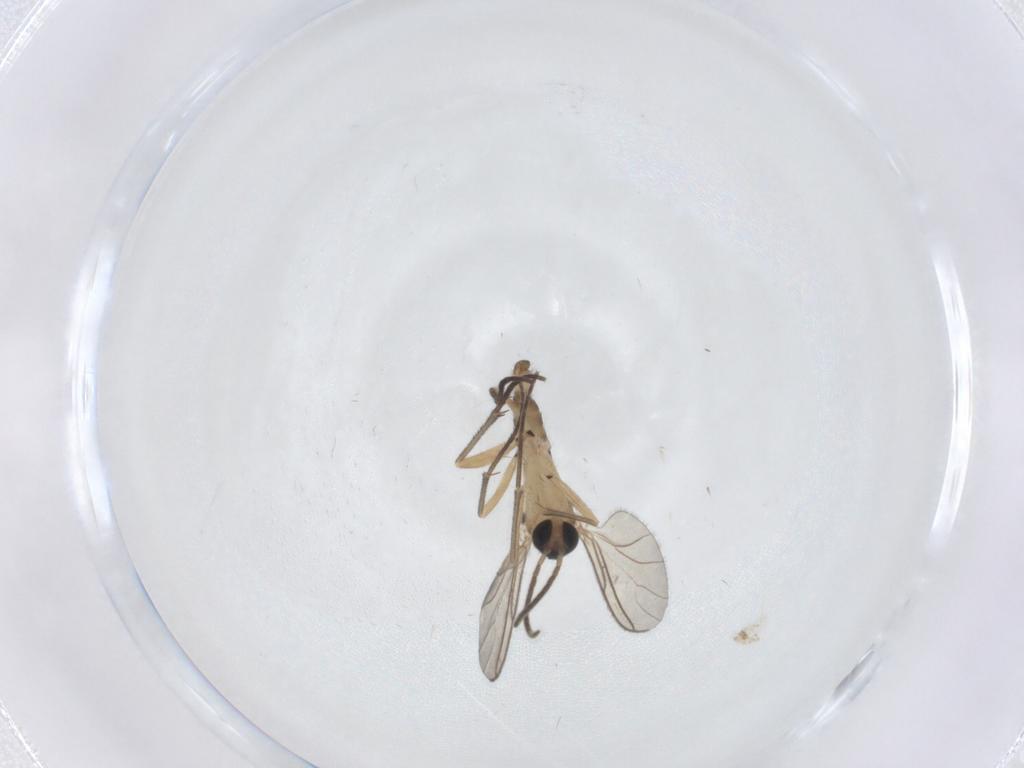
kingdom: Animalia
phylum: Arthropoda
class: Insecta
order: Diptera
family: Sciaridae
